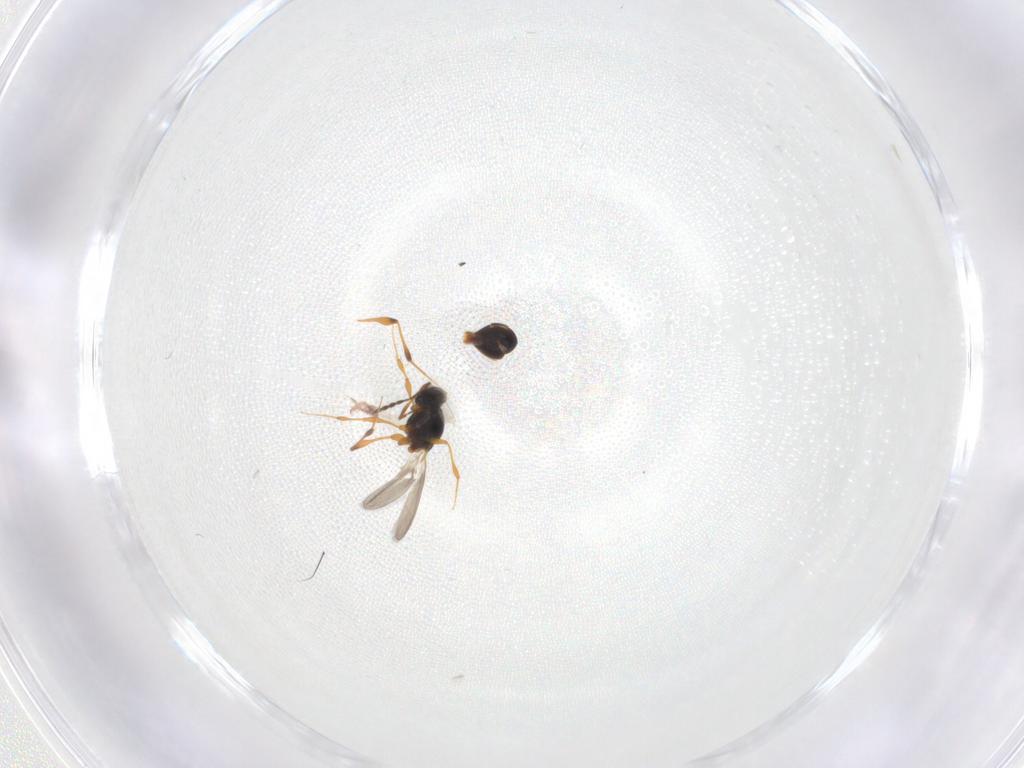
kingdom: Animalia
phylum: Arthropoda
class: Insecta
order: Hymenoptera
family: Platygastridae
